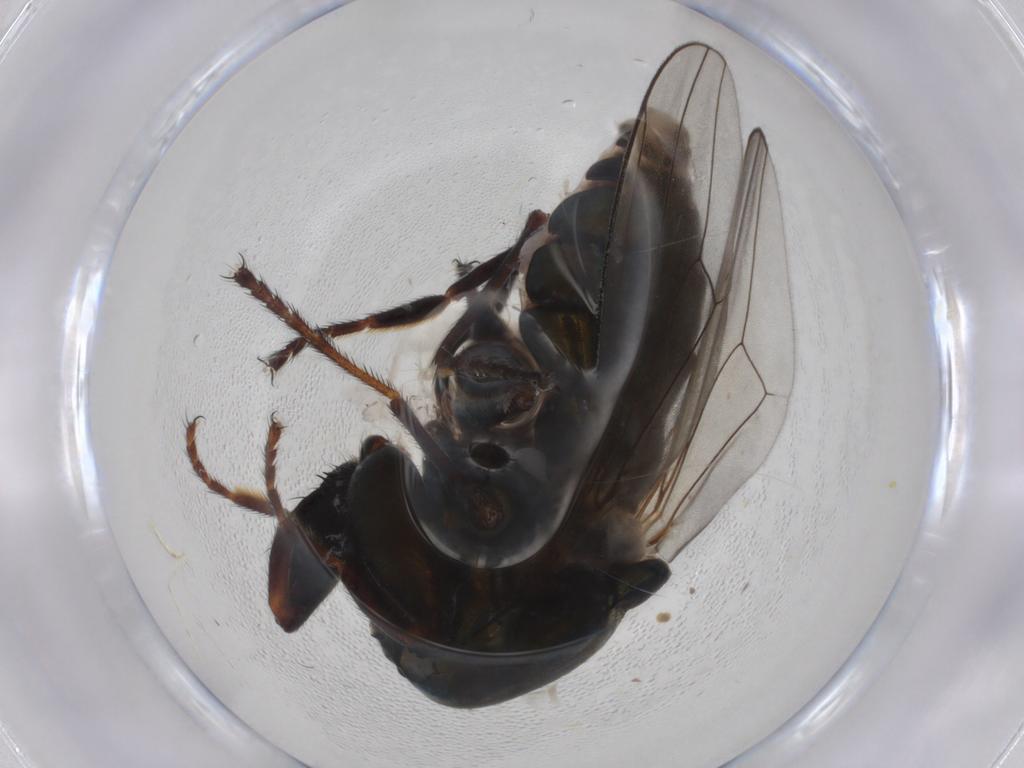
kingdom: Animalia
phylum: Arthropoda
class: Insecta
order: Diptera
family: Ephydridae
